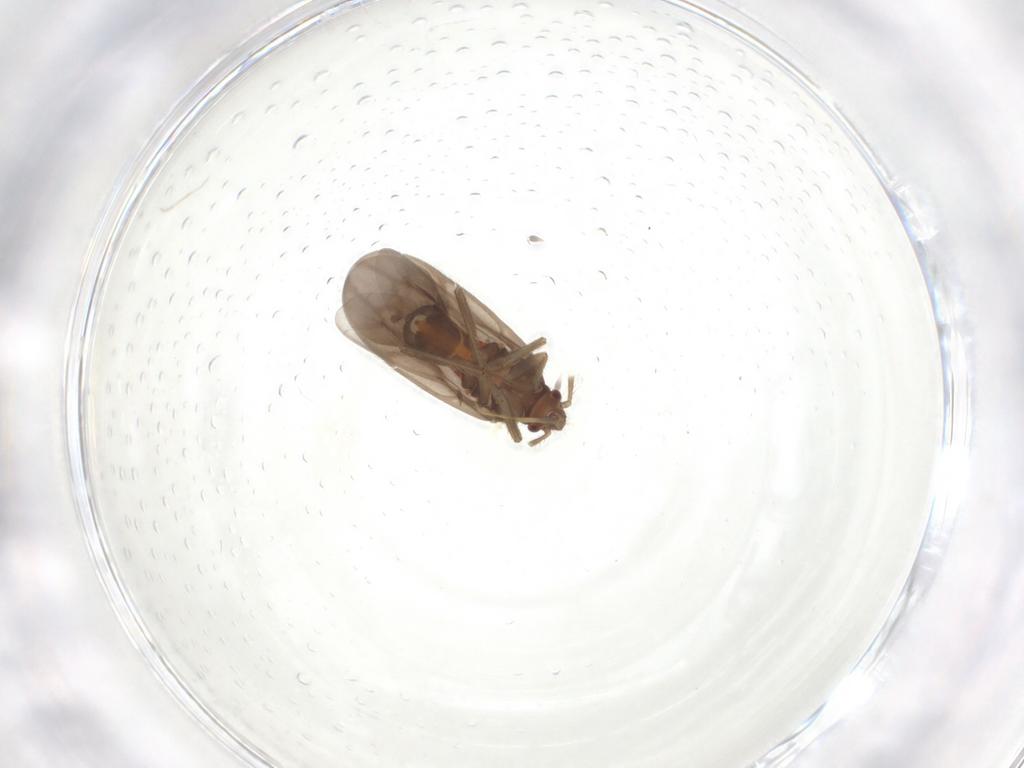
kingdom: Animalia
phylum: Arthropoda
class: Insecta
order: Hemiptera
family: Ceratocombidae
